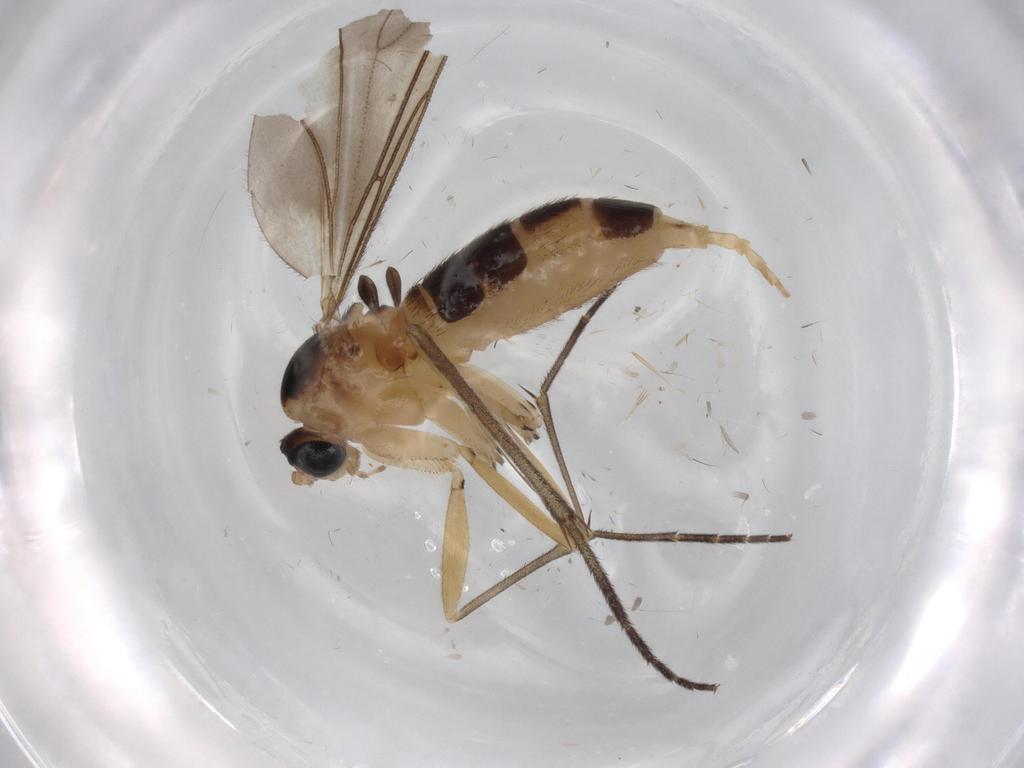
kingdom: Animalia
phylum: Arthropoda
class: Insecta
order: Diptera
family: Sciaridae
